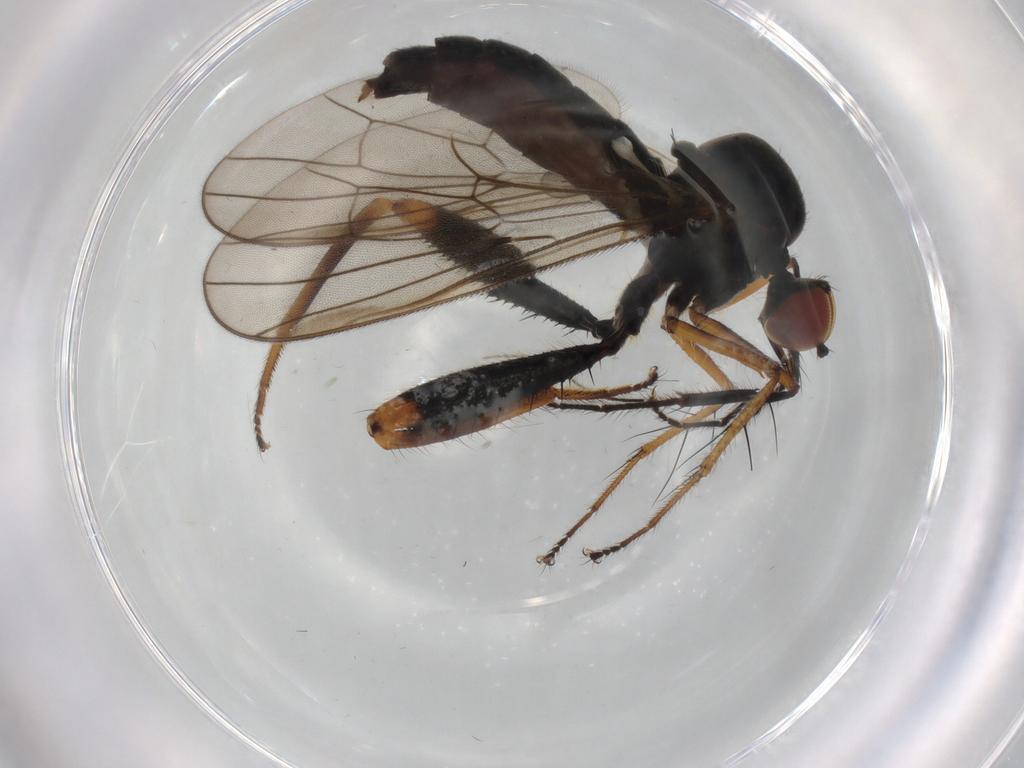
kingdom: Animalia
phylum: Arthropoda
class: Insecta
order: Diptera
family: Hybotidae
